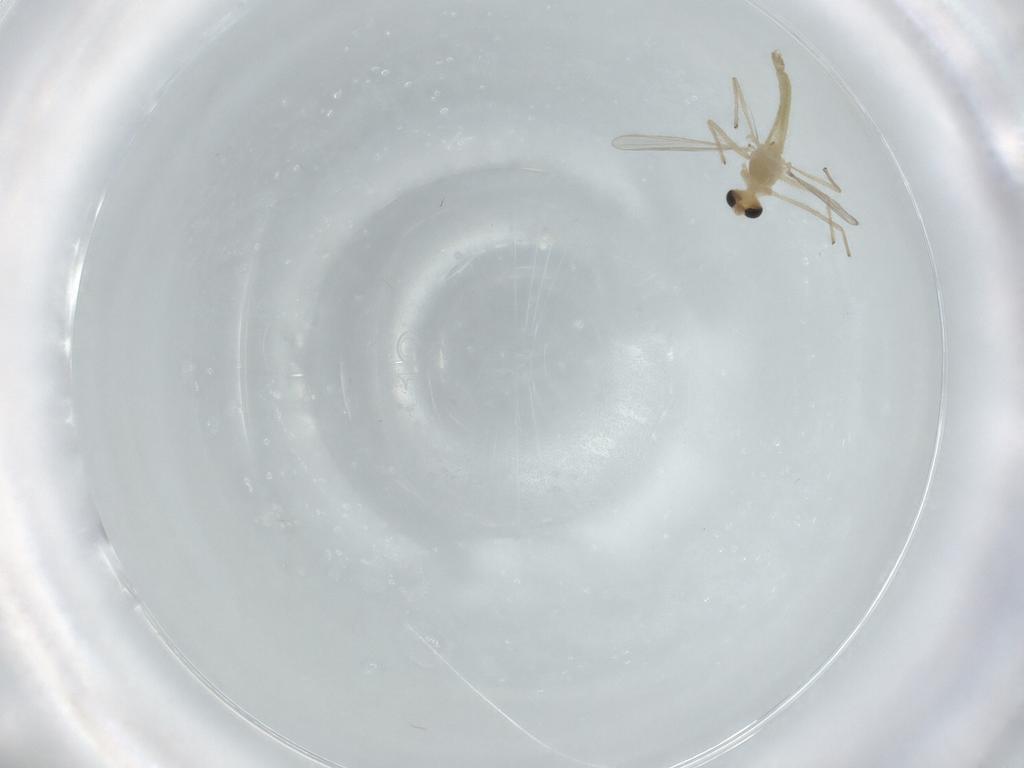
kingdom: Animalia
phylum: Arthropoda
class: Insecta
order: Diptera
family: Chironomidae
